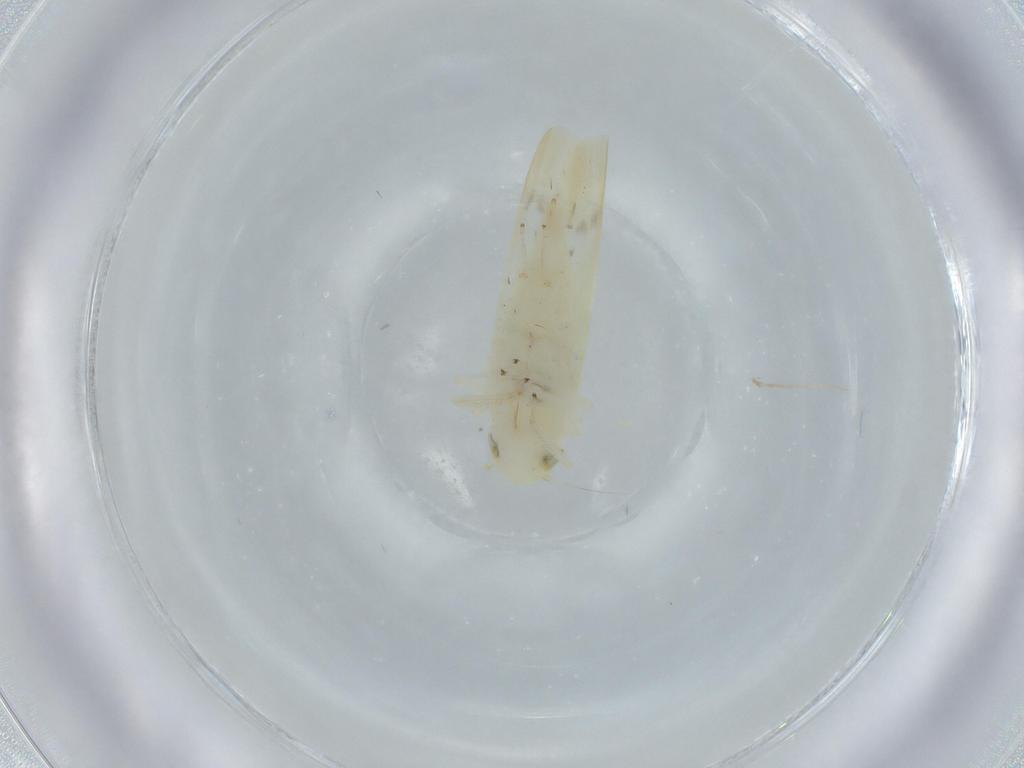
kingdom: Animalia
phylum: Arthropoda
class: Insecta
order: Hemiptera
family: Cicadellidae
